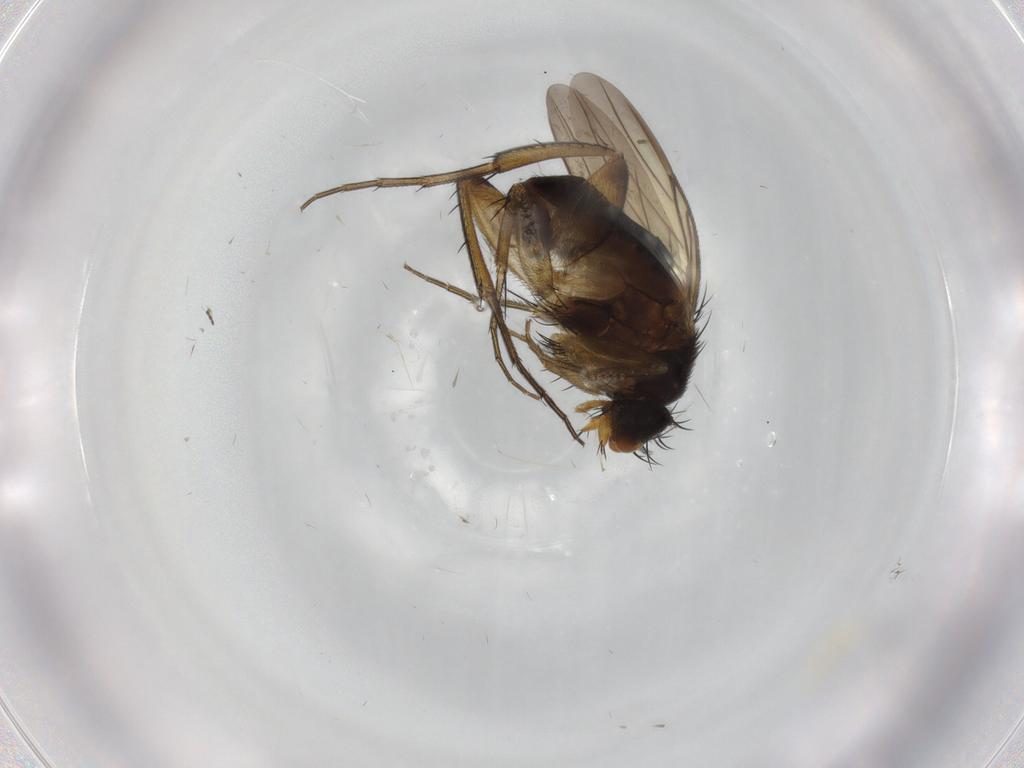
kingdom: Animalia
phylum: Arthropoda
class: Insecta
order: Diptera
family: Phoridae
